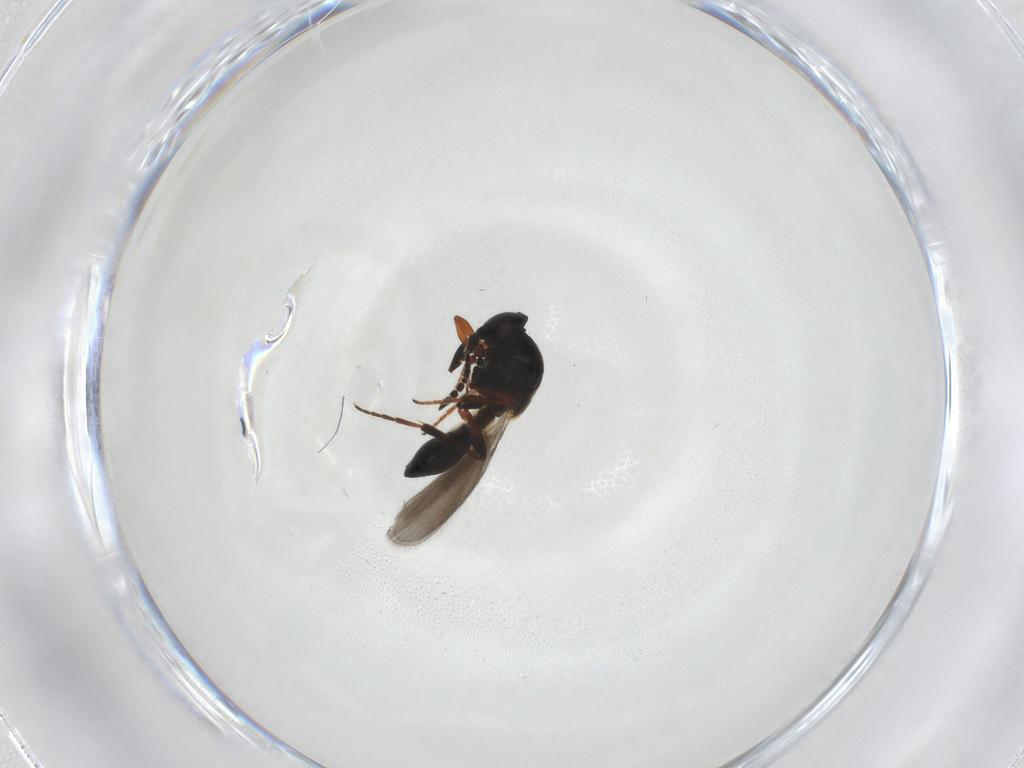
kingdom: Animalia
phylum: Arthropoda
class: Insecta
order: Hymenoptera
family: Platygastridae
